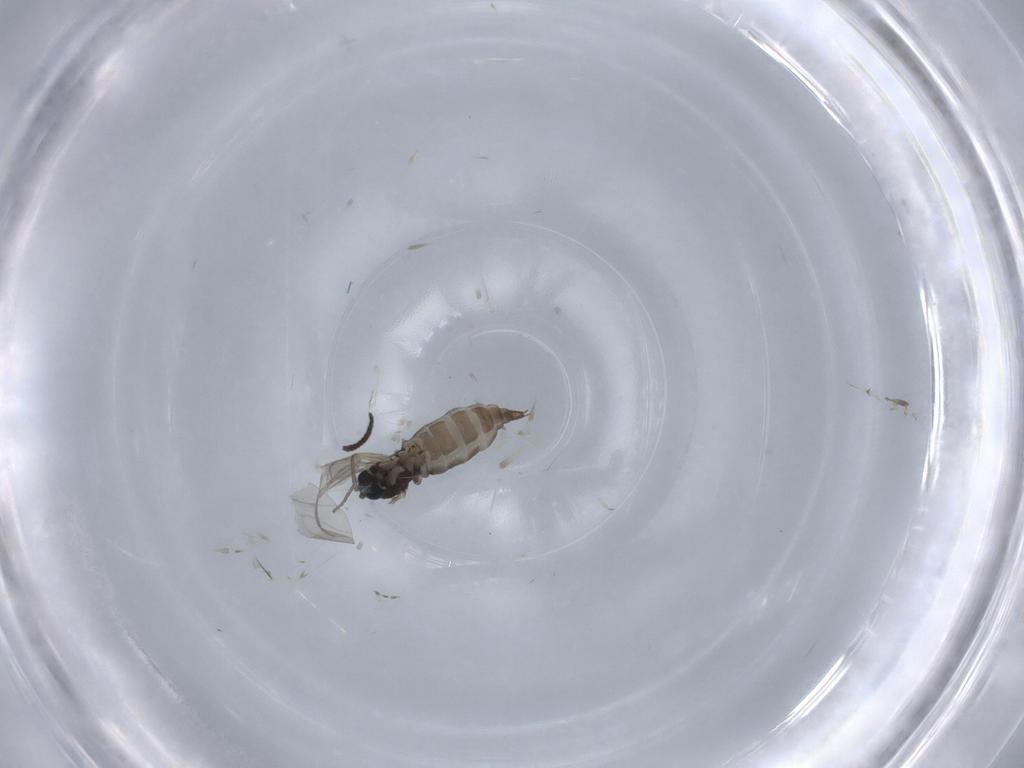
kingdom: Animalia
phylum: Arthropoda
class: Insecta
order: Diptera
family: Sciaridae
